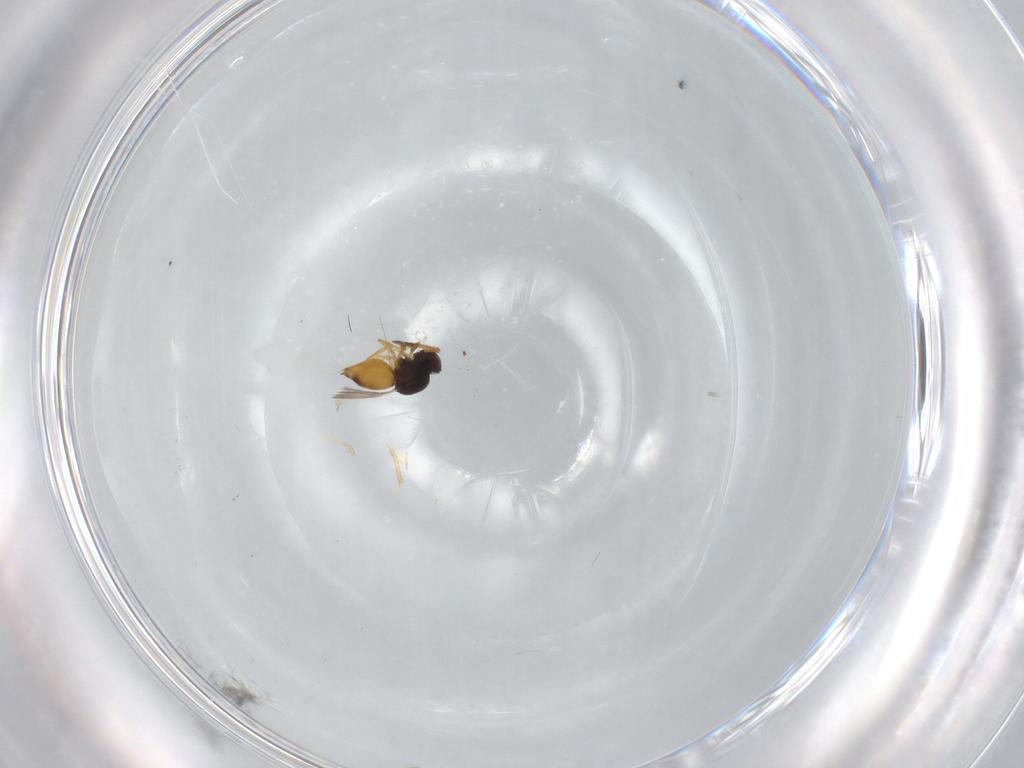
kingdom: Animalia
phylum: Arthropoda
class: Insecta
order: Hymenoptera
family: Ceraphronidae
